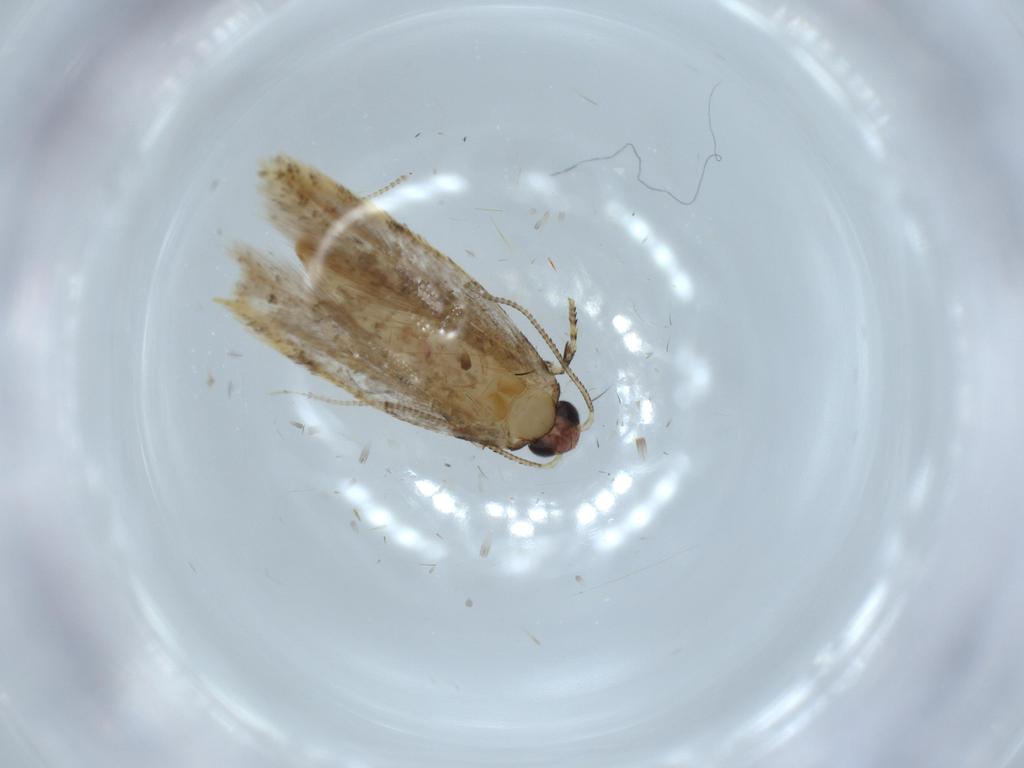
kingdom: Animalia
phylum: Arthropoda
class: Insecta
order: Lepidoptera
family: Tineidae
